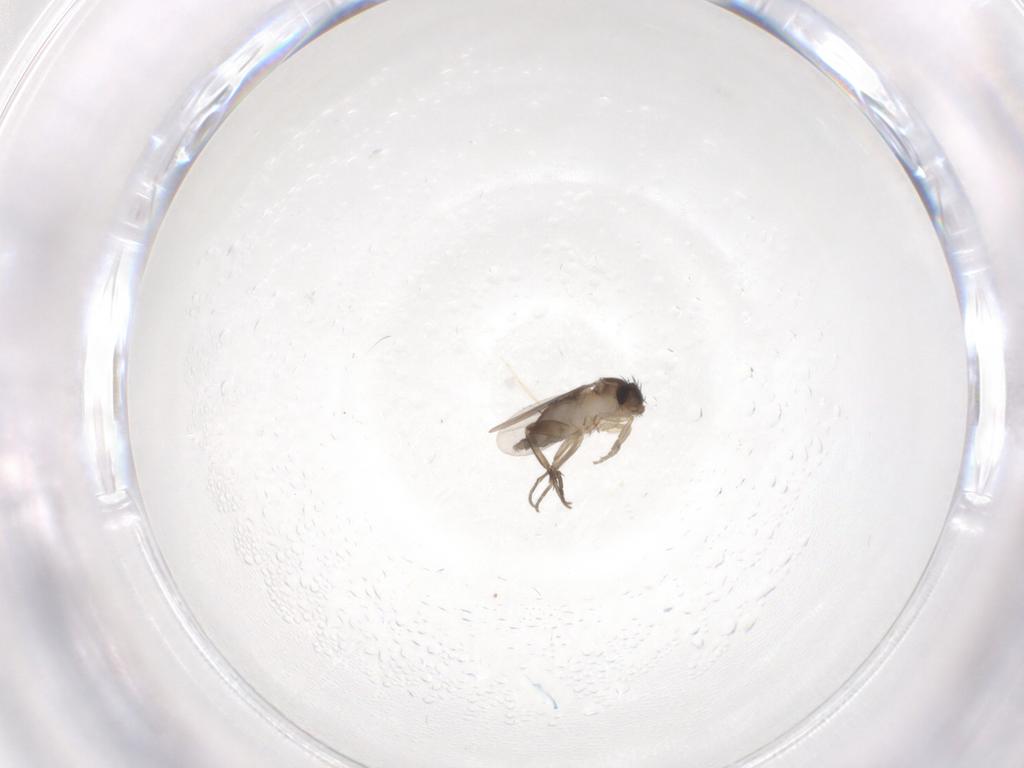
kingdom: Animalia
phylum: Arthropoda
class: Insecta
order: Diptera
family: Phoridae
